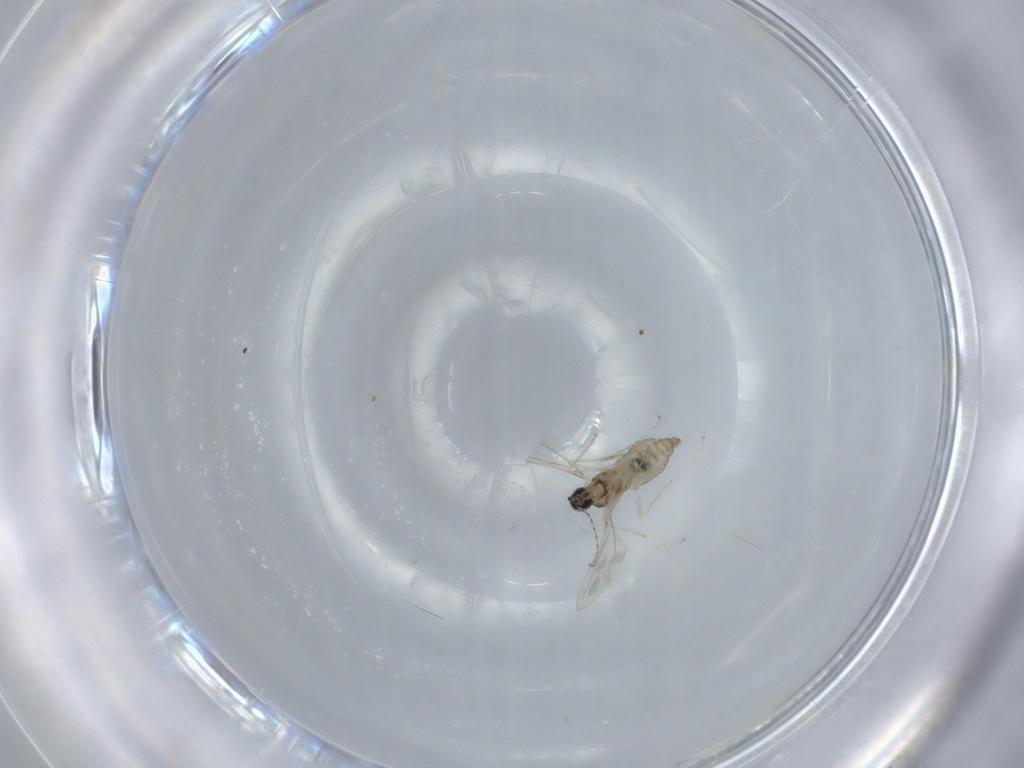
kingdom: Animalia
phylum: Arthropoda
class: Insecta
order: Diptera
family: Cecidomyiidae
